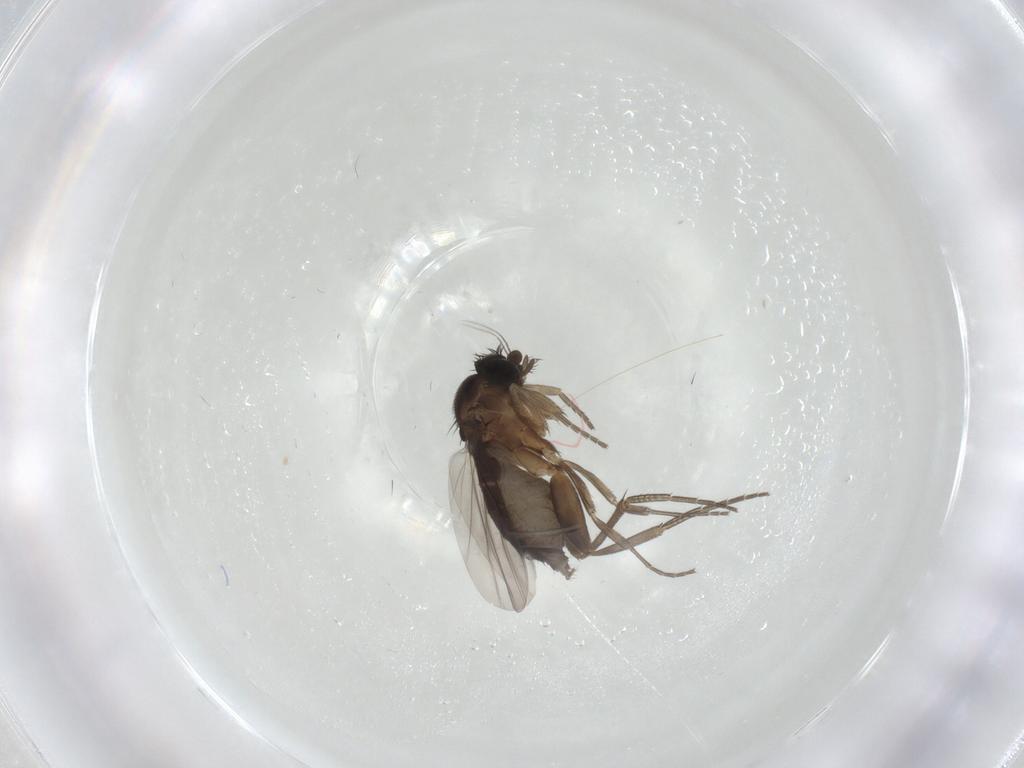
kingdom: Animalia
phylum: Arthropoda
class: Insecta
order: Diptera
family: Phoridae
